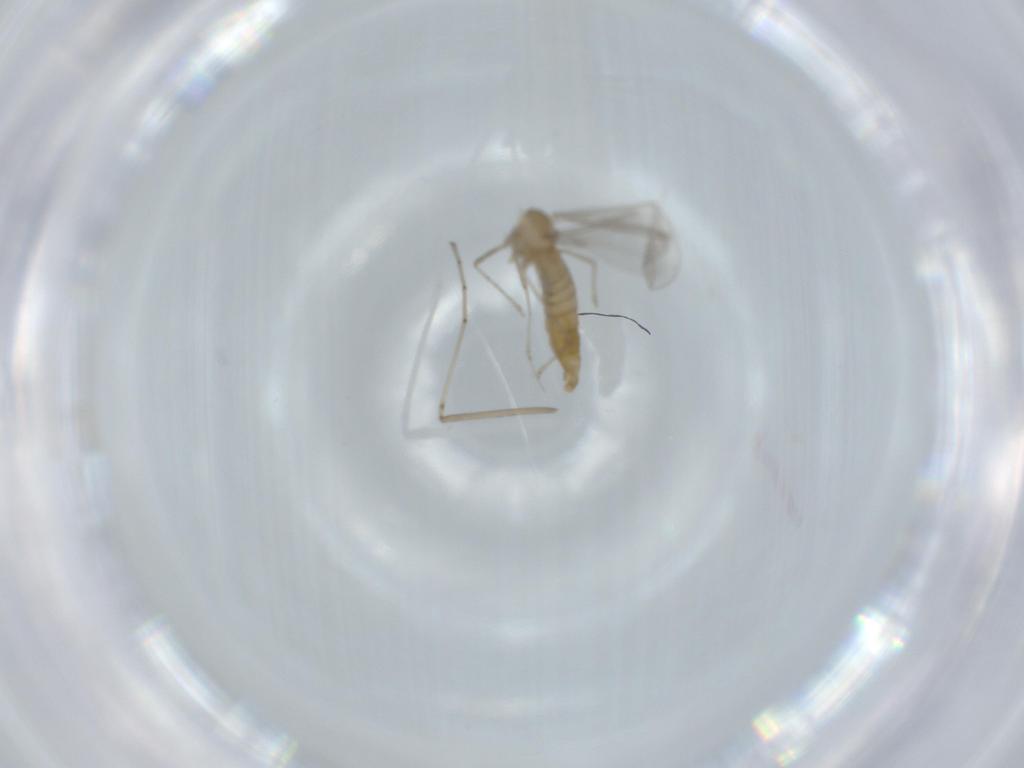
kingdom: Animalia
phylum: Arthropoda
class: Insecta
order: Diptera
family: Cecidomyiidae
